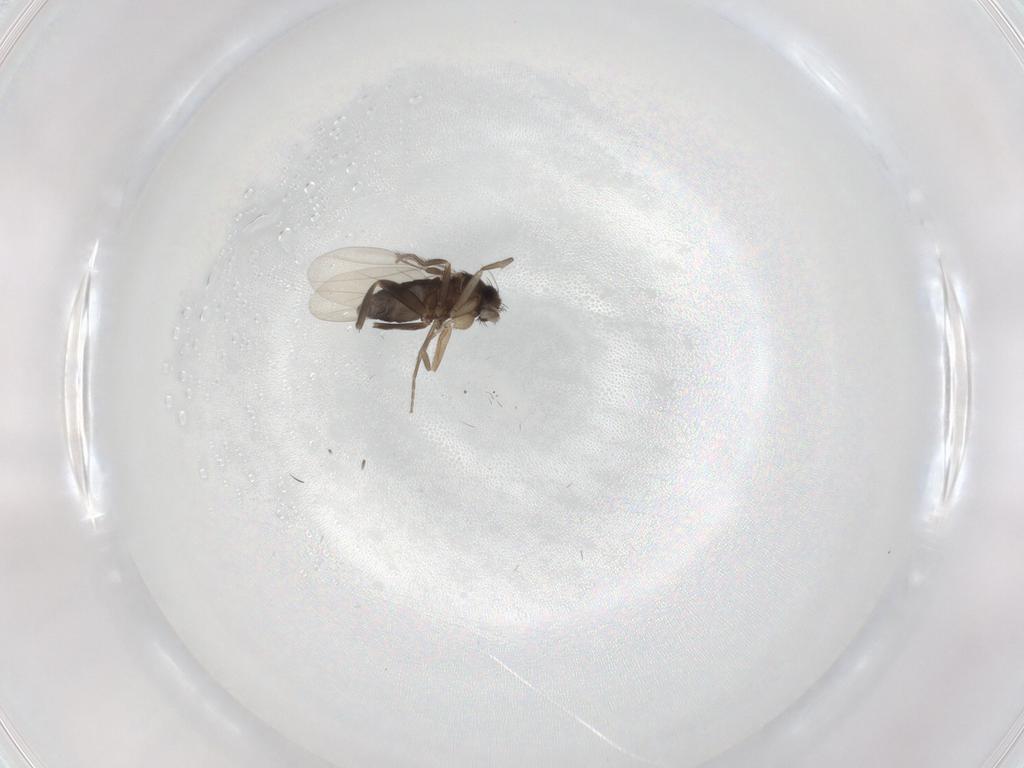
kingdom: Animalia
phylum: Arthropoda
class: Insecta
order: Diptera
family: Phoridae
